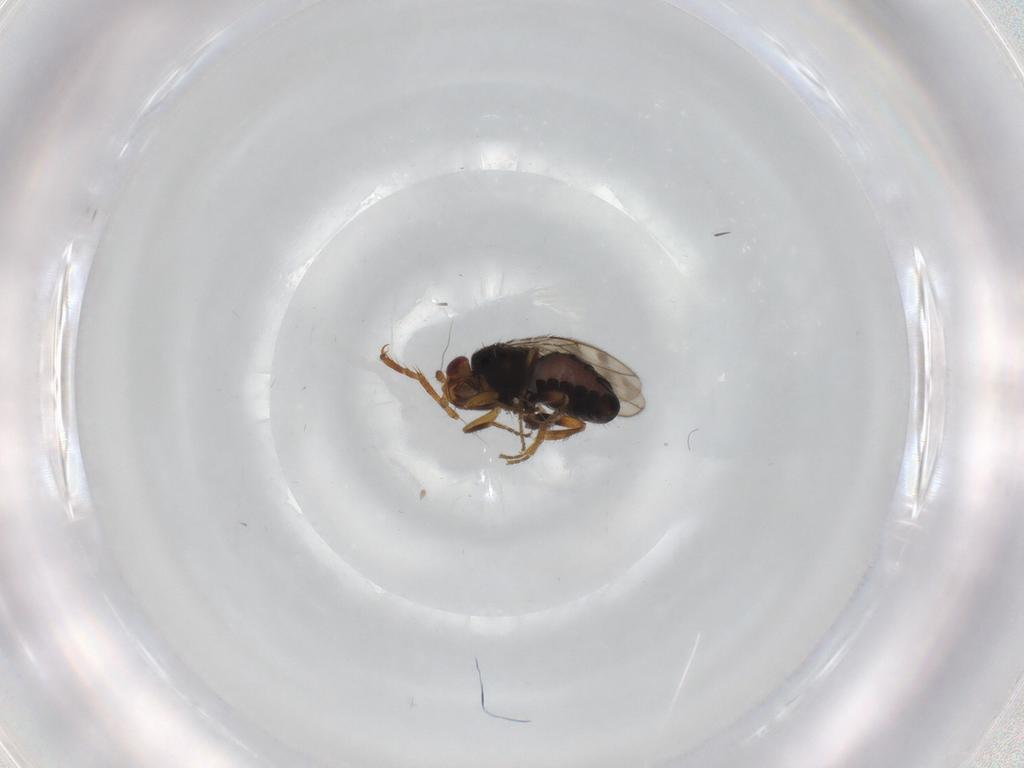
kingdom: Animalia
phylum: Arthropoda
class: Insecta
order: Diptera
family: Sphaeroceridae
